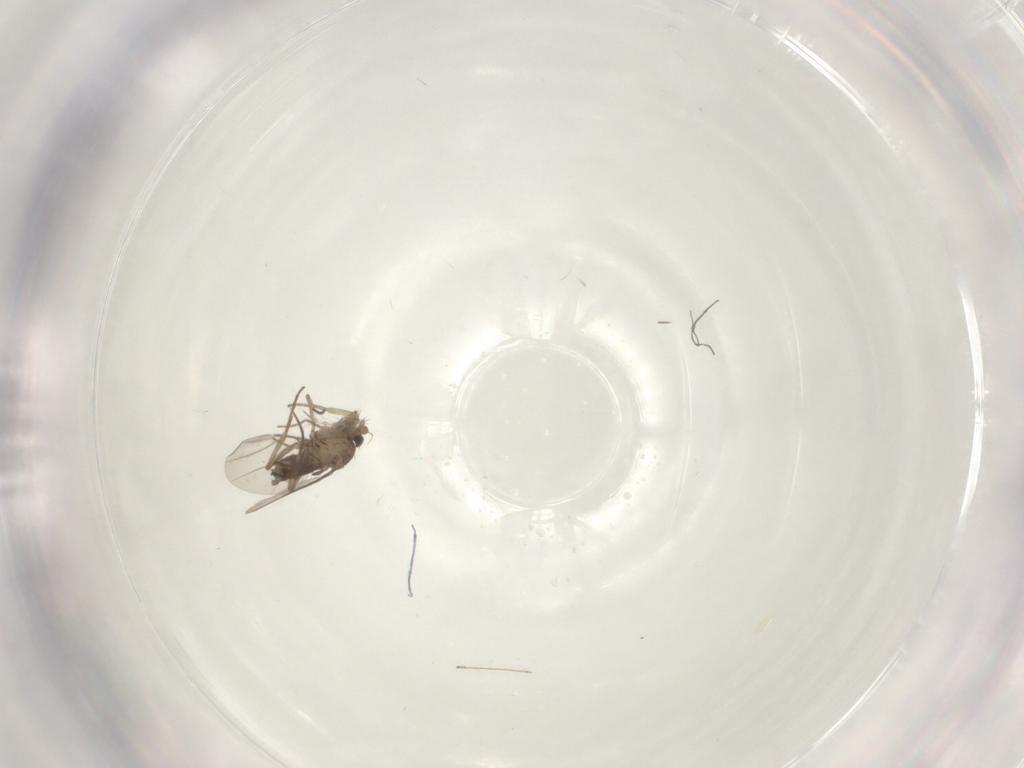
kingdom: Animalia
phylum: Arthropoda
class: Insecta
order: Diptera
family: Phoridae
